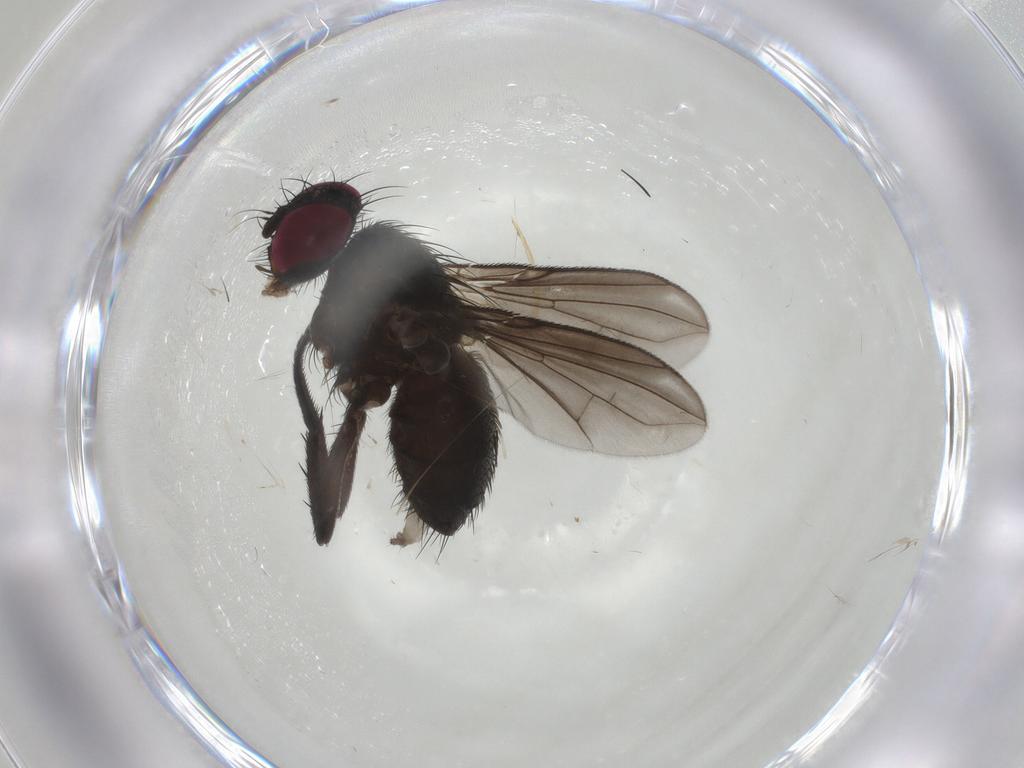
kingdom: Animalia
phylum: Arthropoda
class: Insecta
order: Diptera
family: Calliphoridae
